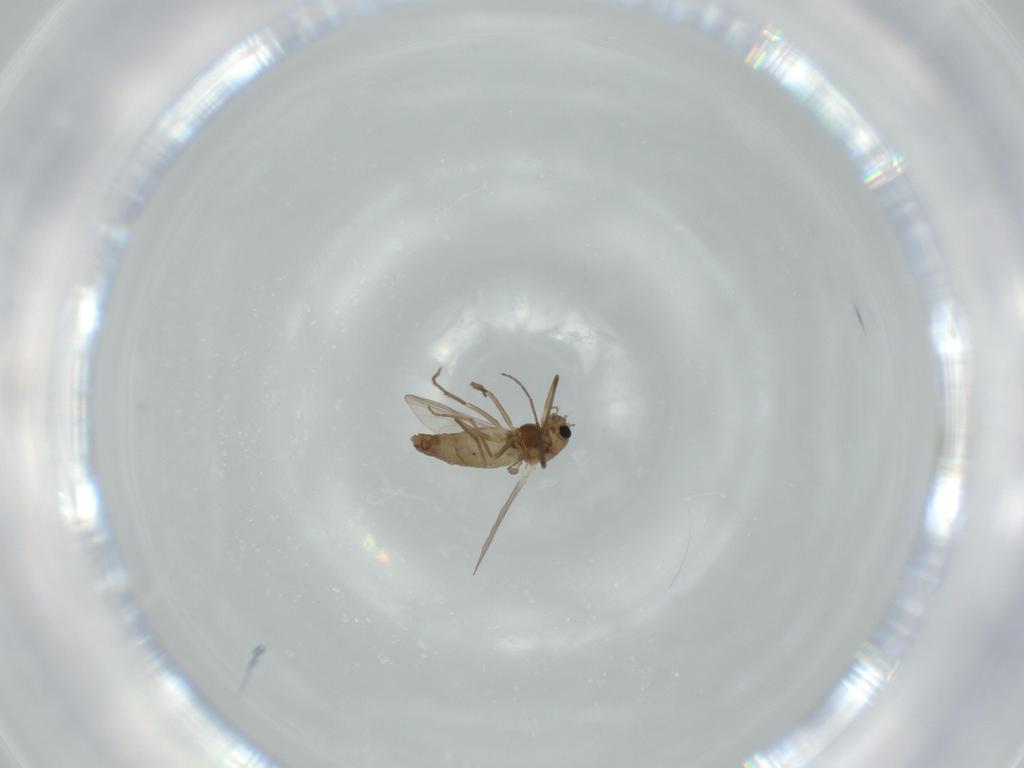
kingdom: Animalia
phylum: Arthropoda
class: Insecta
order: Diptera
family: Chironomidae
